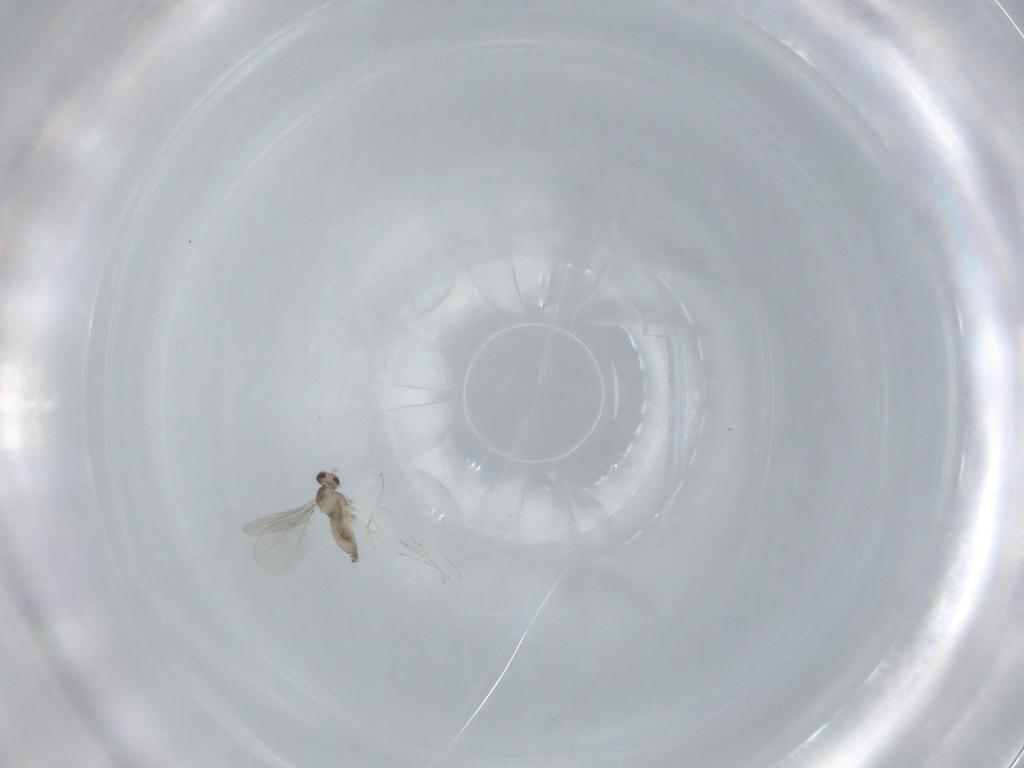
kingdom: Animalia
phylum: Arthropoda
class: Insecta
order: Diptera
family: Cecidomyiidae
